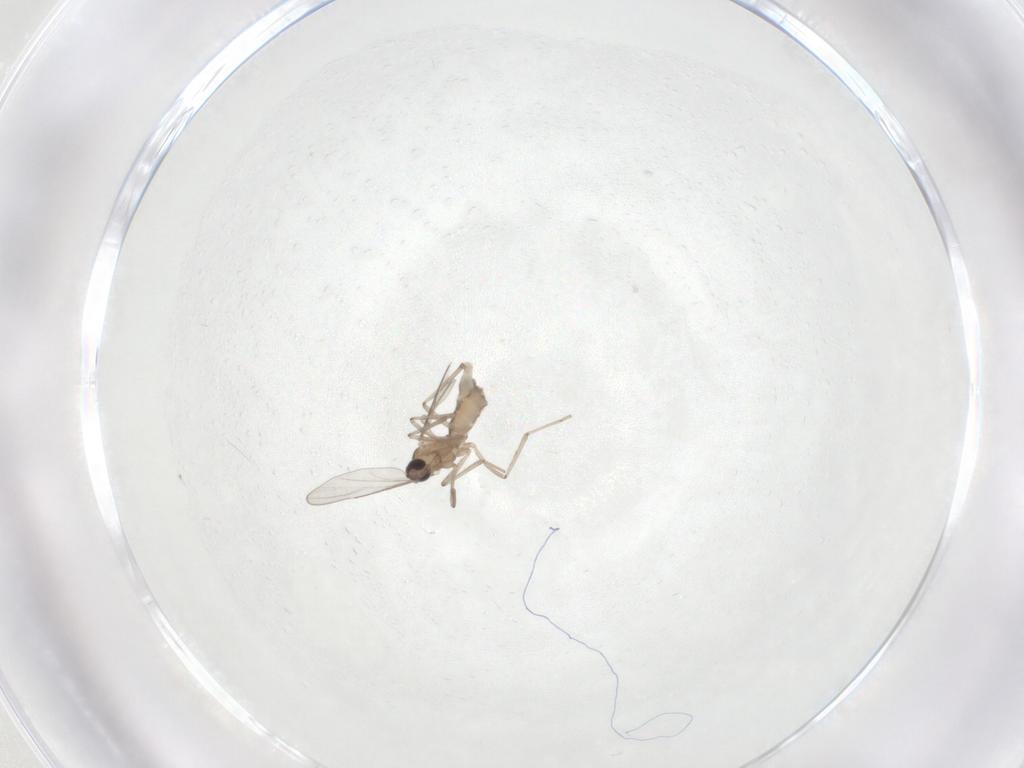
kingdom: Animalia
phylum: Arthropoda
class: Insecta
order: Diptera
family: Cecidomyiidae
